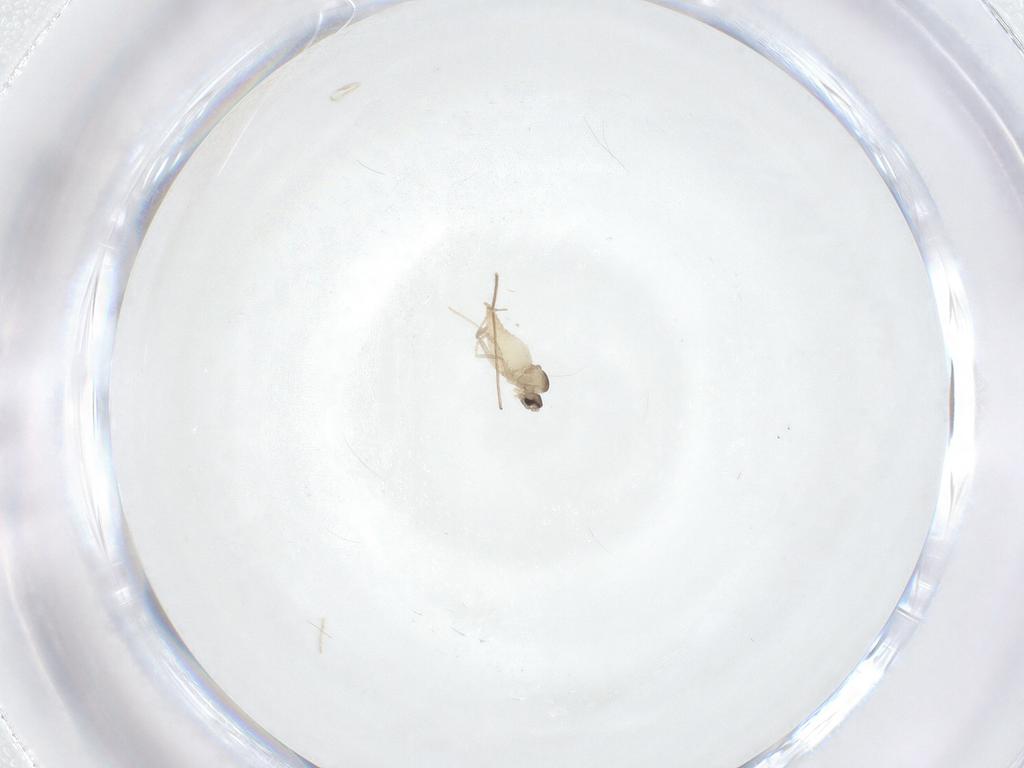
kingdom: Animalia
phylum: Arthropoda
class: Insecta
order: Diptera
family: Cecidomyiidae
